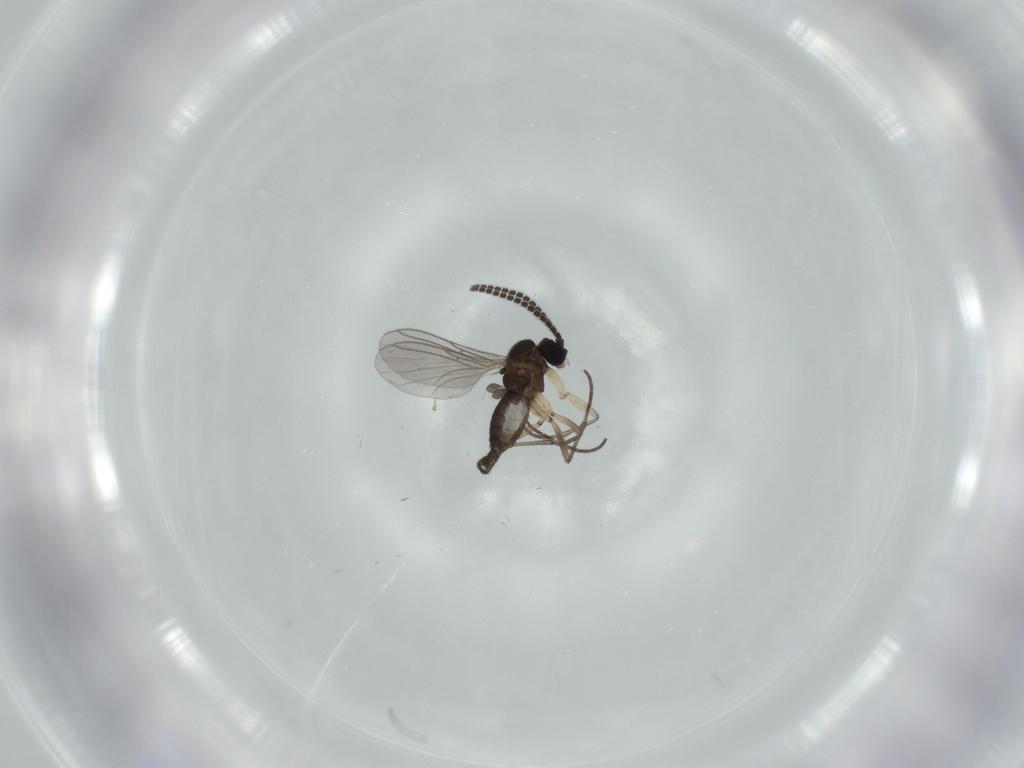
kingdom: Animalia
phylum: Arthropoda
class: Insecta
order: Diptera
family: Sciaridae
